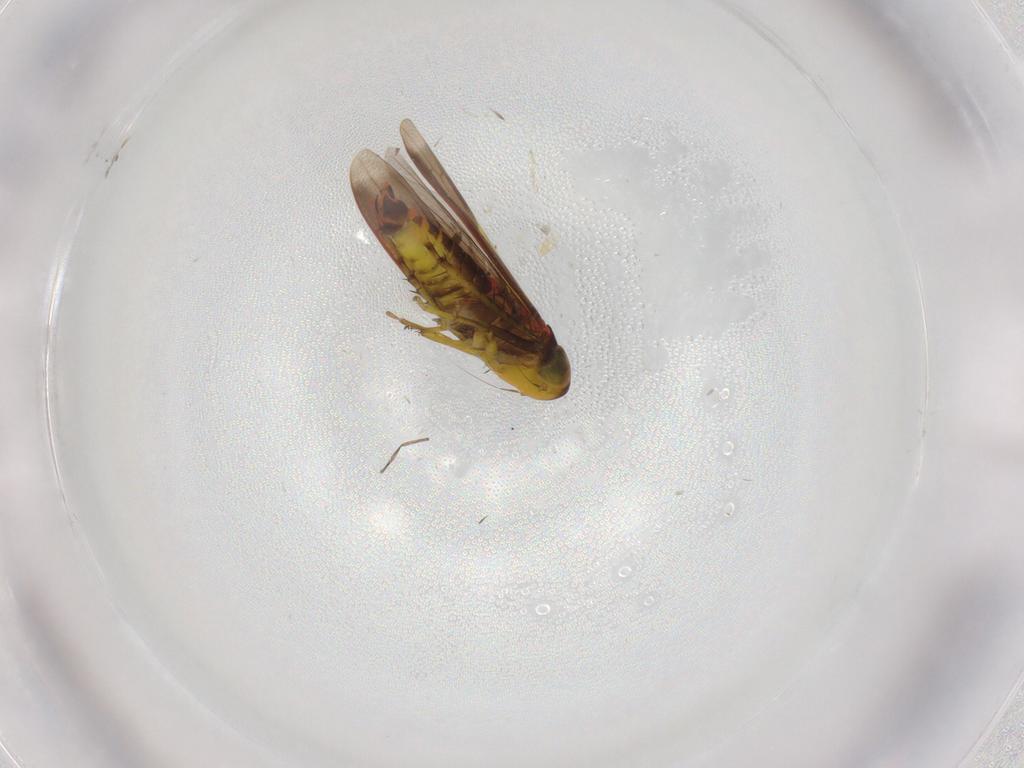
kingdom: Animalia
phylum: Arthropoda
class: Insecta
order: Hemiptera
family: Cicadellidae
